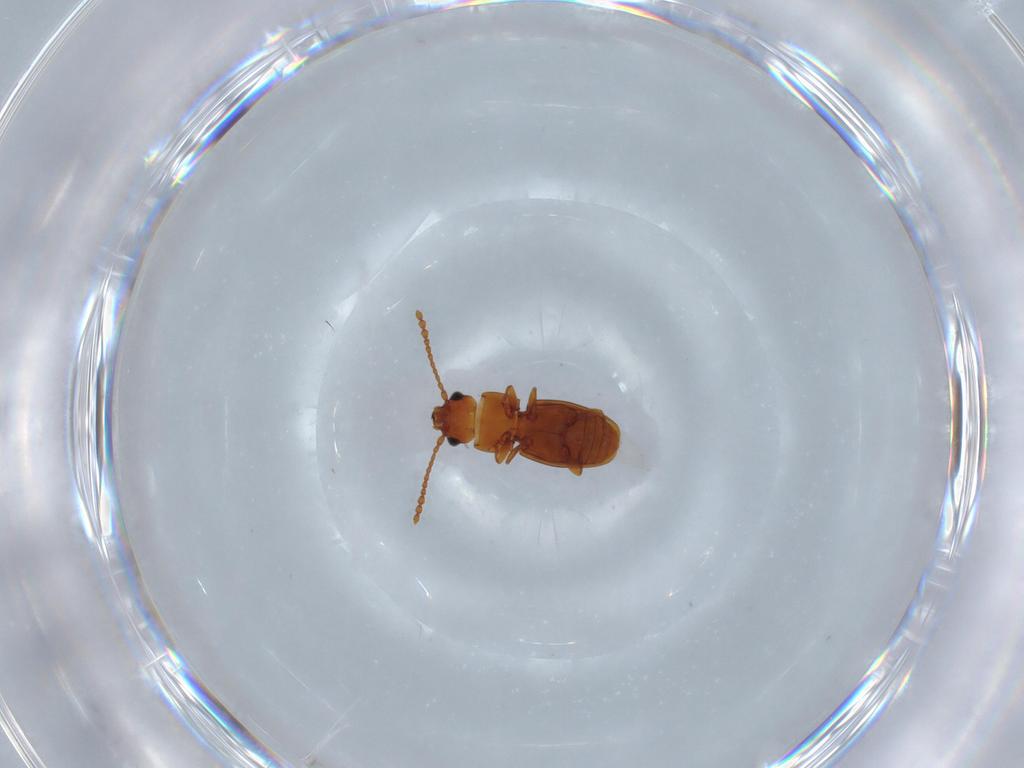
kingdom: Animalia
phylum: Arthropoda
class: Insecta
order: Coleoptera
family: Laemophloeidae
